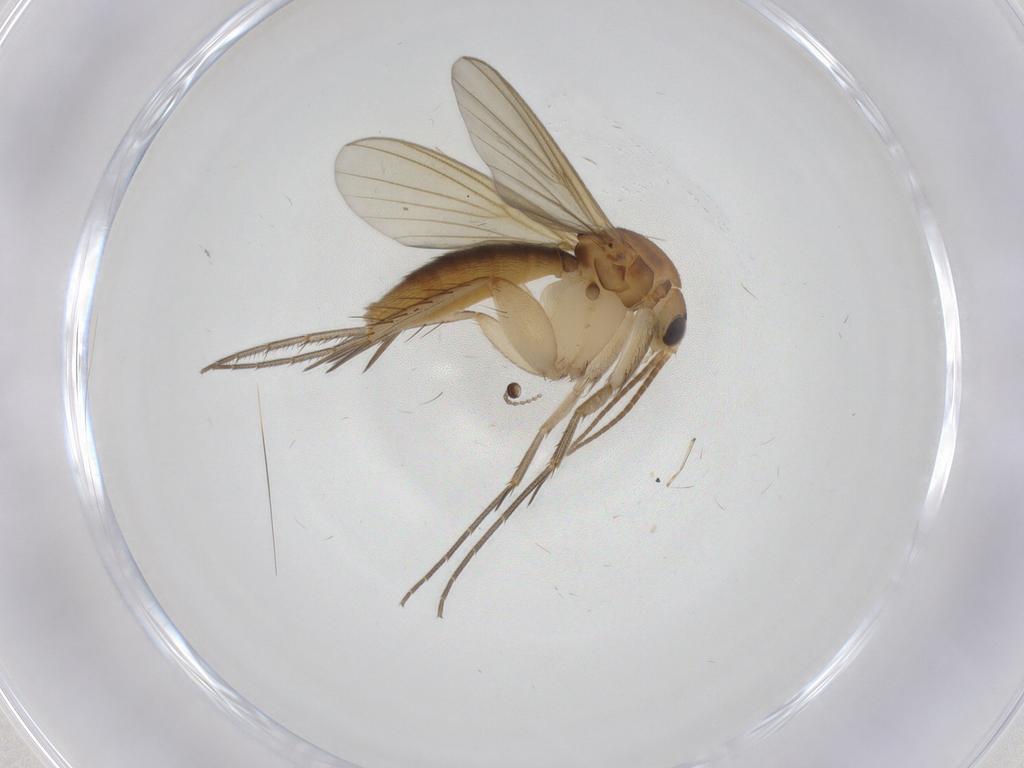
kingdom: Animalia
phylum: Arthropoda
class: Insecta
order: Diptera
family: Mycetophilidae
